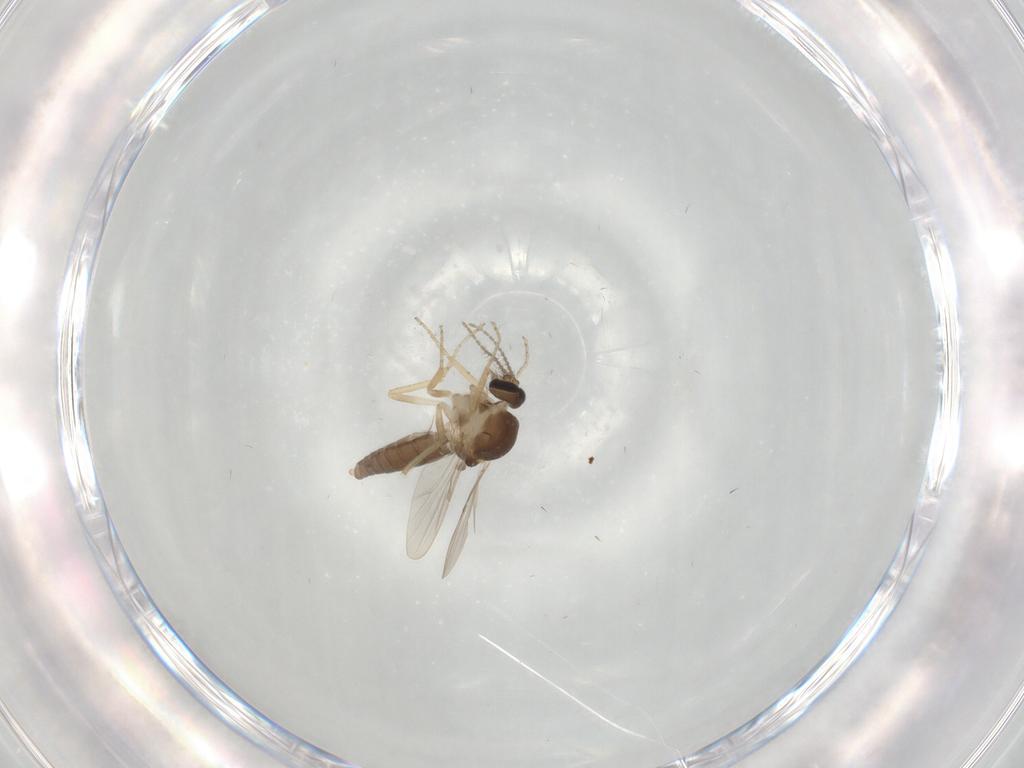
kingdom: Animalia
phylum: Arthropoda
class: Insecta
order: Diptera
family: Ceratopogonidae
